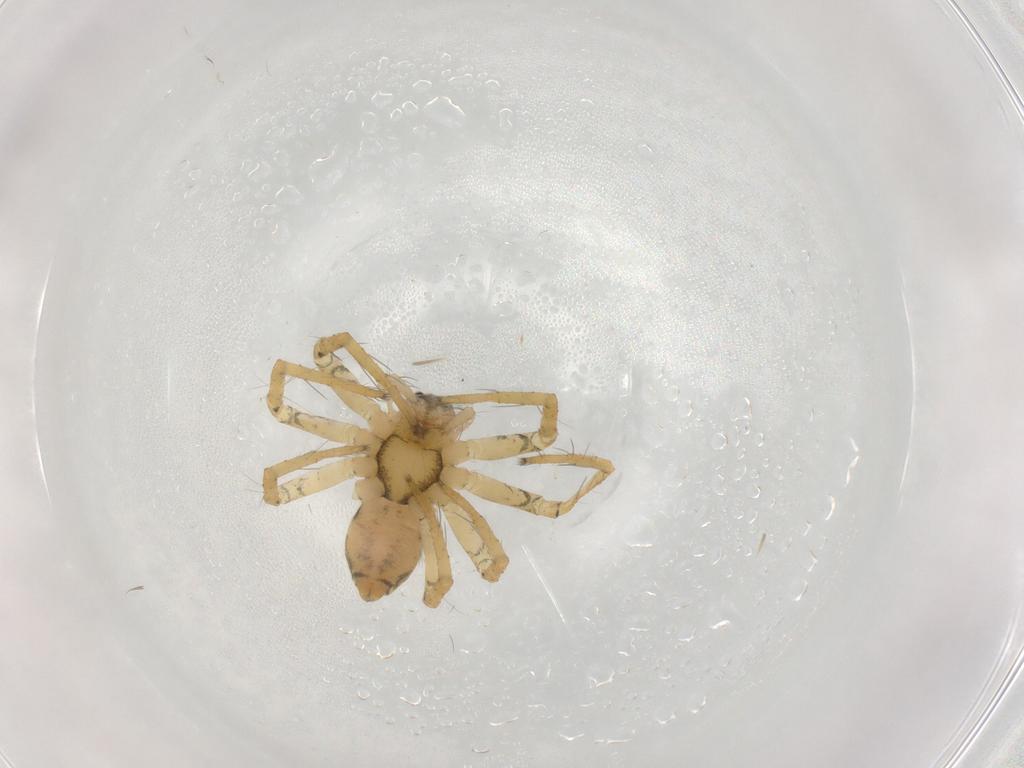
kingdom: Animalia
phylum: Arthropoda
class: Arachnida
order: Araneae
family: Pisauridae
